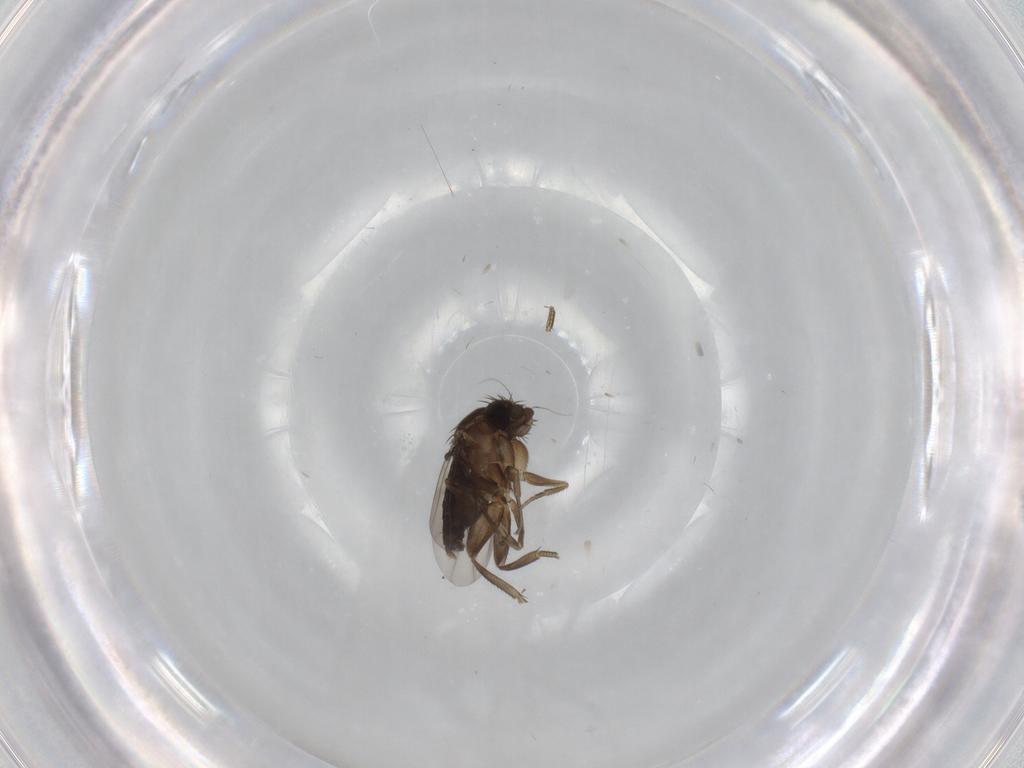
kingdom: Animalia
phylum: Arthropoda
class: Insecta
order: Diptera
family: Phoridae
